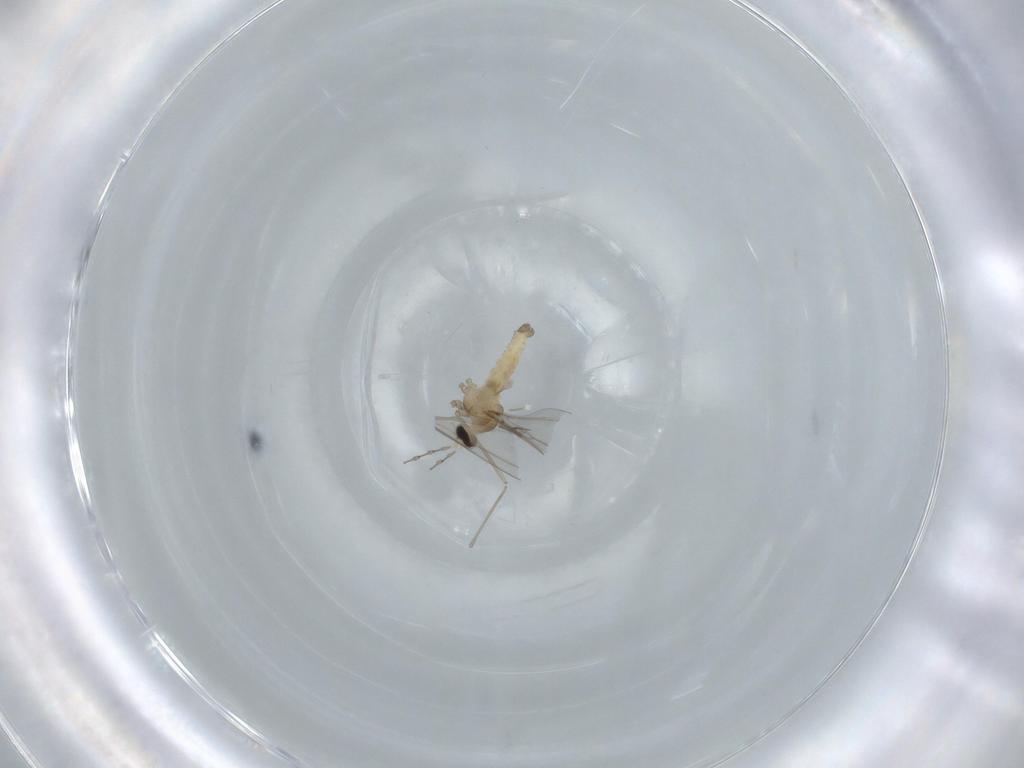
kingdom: Animalia
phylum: Arthropoda
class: Insecta
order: Diptera
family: Cecidomyiidae
